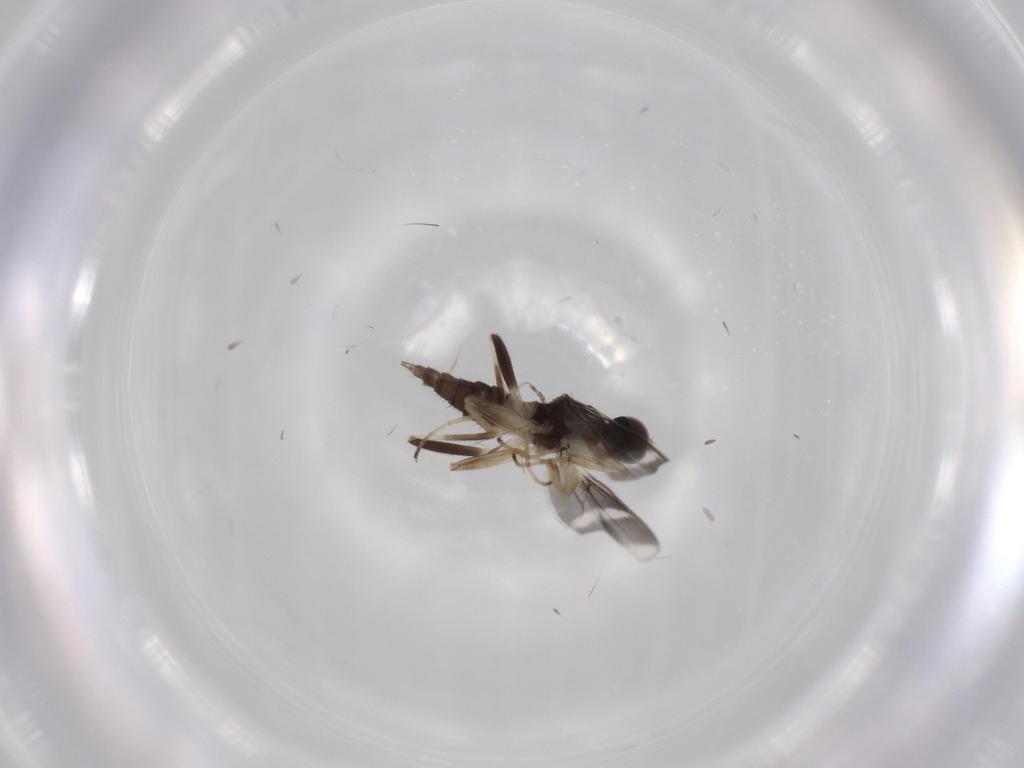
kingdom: Animalia
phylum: Arthropoda
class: Insecta
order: Diptera
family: Hybotidae
